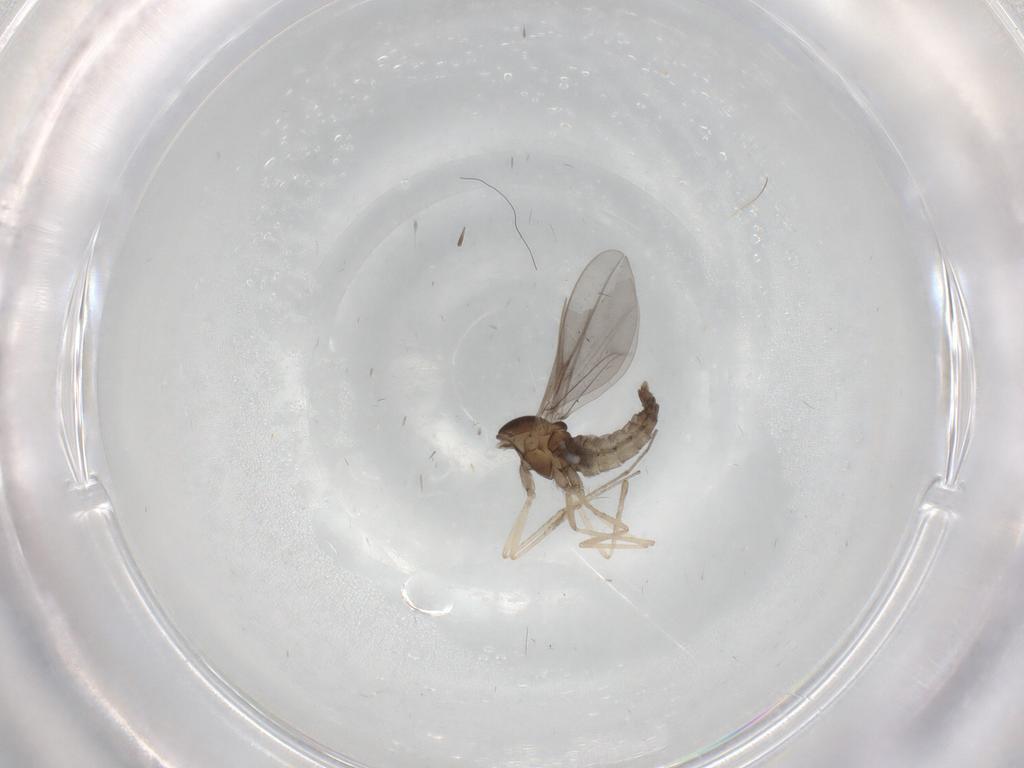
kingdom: Animalia
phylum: Arthropoda
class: Insecta
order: Diptera
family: Cecidomyiidae
